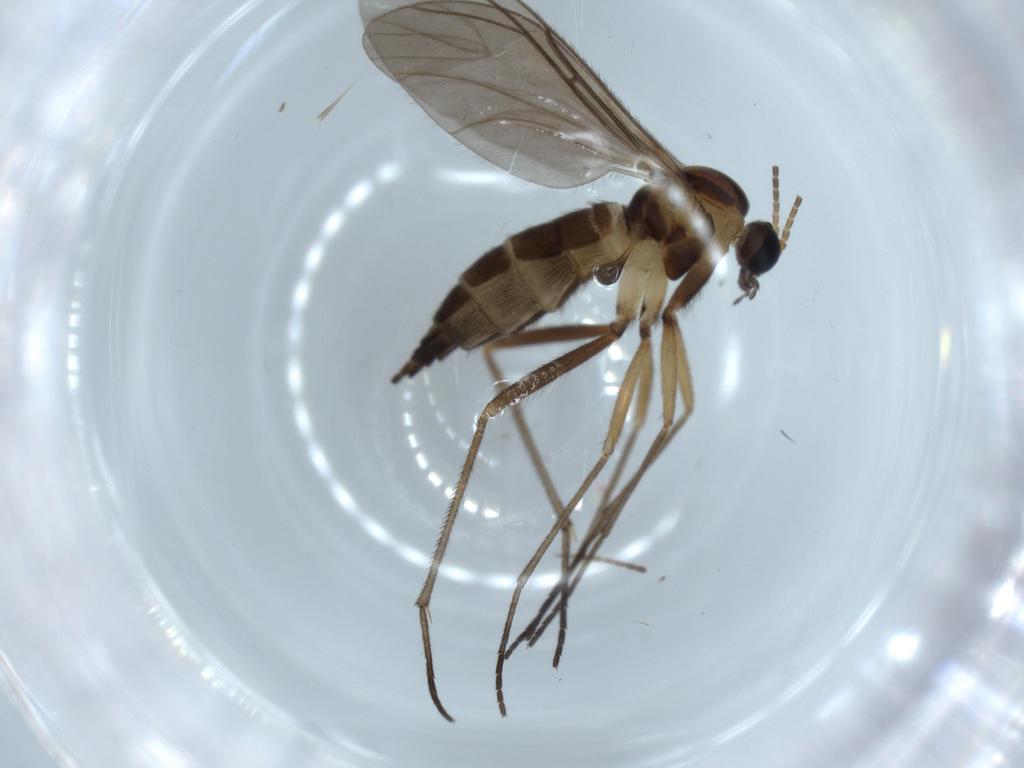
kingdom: Animalia
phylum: Arthropoda
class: Insecta
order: Diptera
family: Sciaridae
